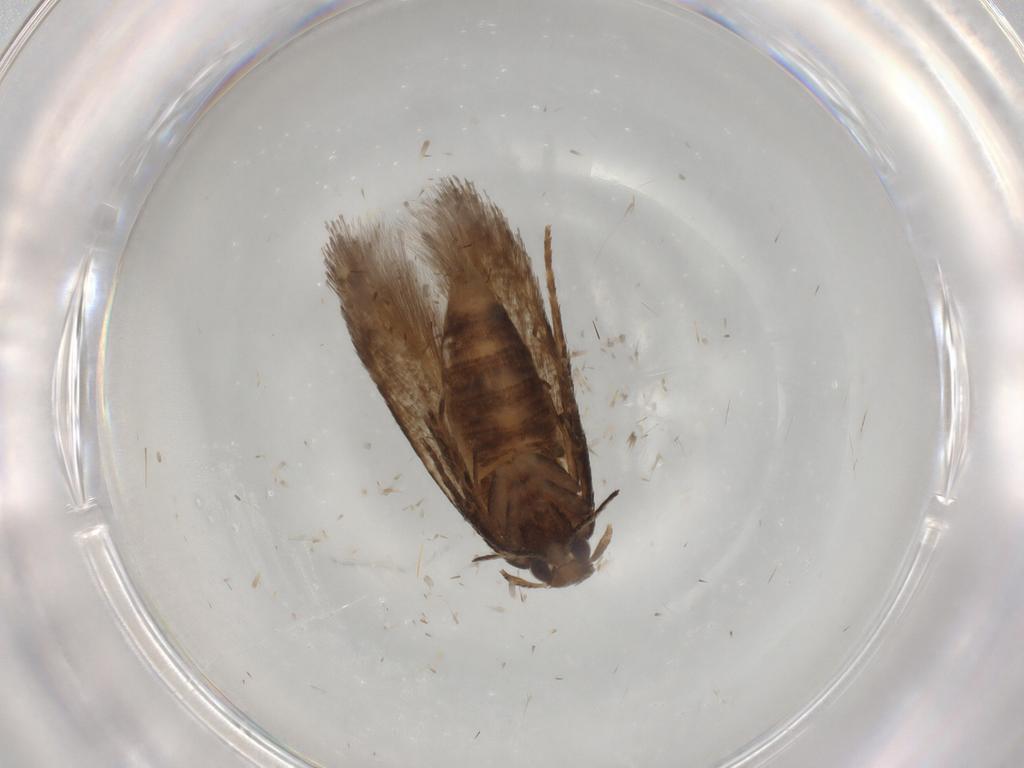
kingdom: Animalia
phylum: Arthropoda
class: Insecta
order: Lepidoptera
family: Cosmopterigidae
